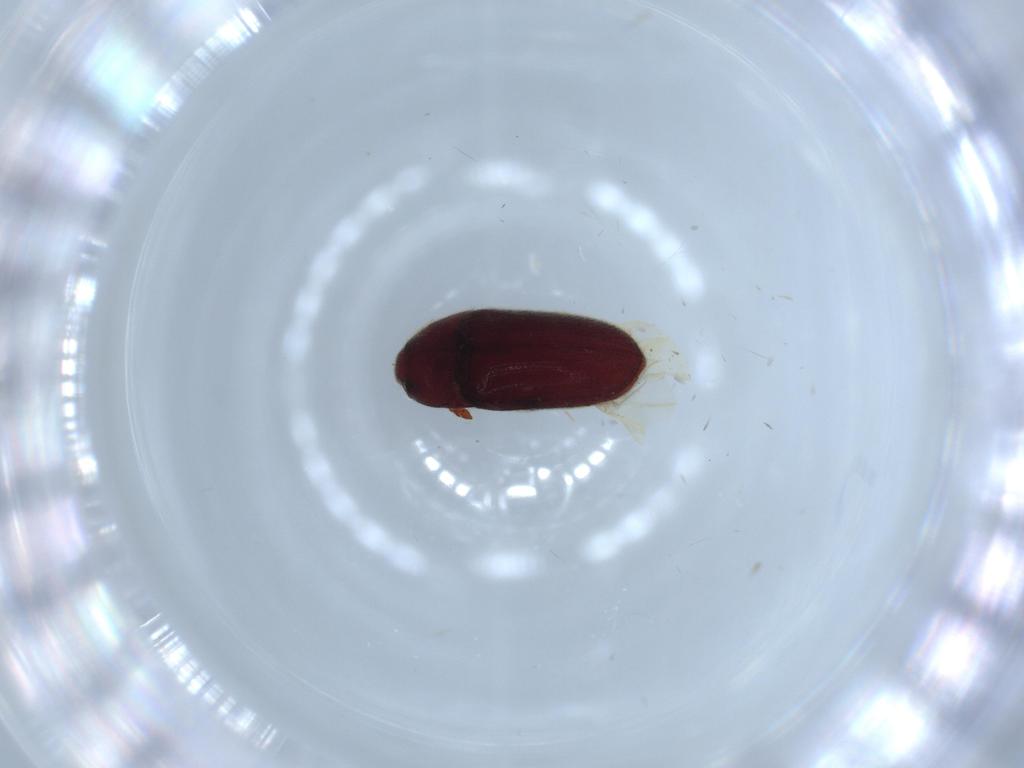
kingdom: Animalia
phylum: Arthropoda
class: Insecta
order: Coleoptera
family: Throscidae
